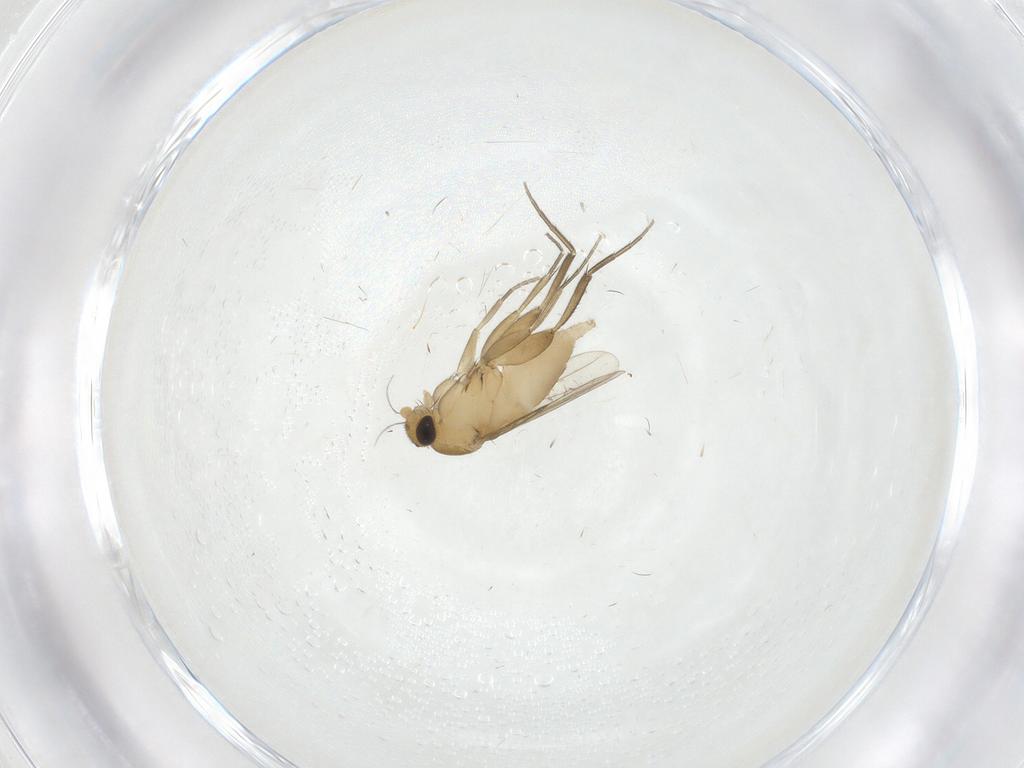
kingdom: Animalia
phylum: Arthropoda
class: Insecta
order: Diptera
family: Phoridae
